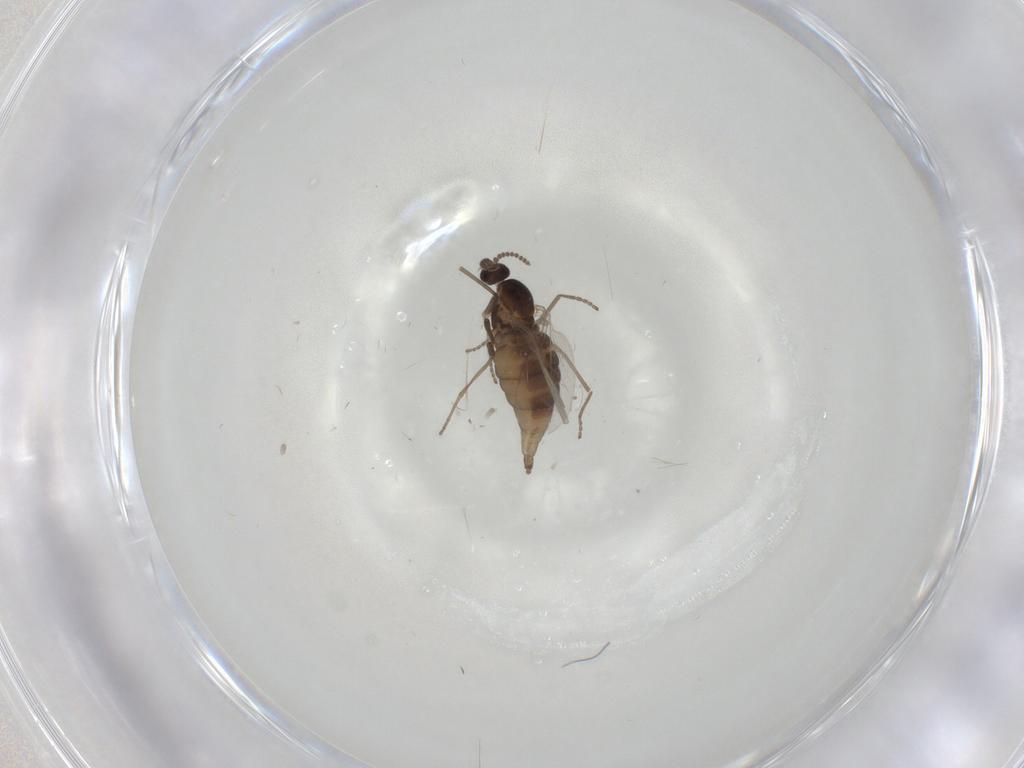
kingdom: Animalia
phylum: Arthropoda
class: Insecta
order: Diptera
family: Cecidomyiidae
